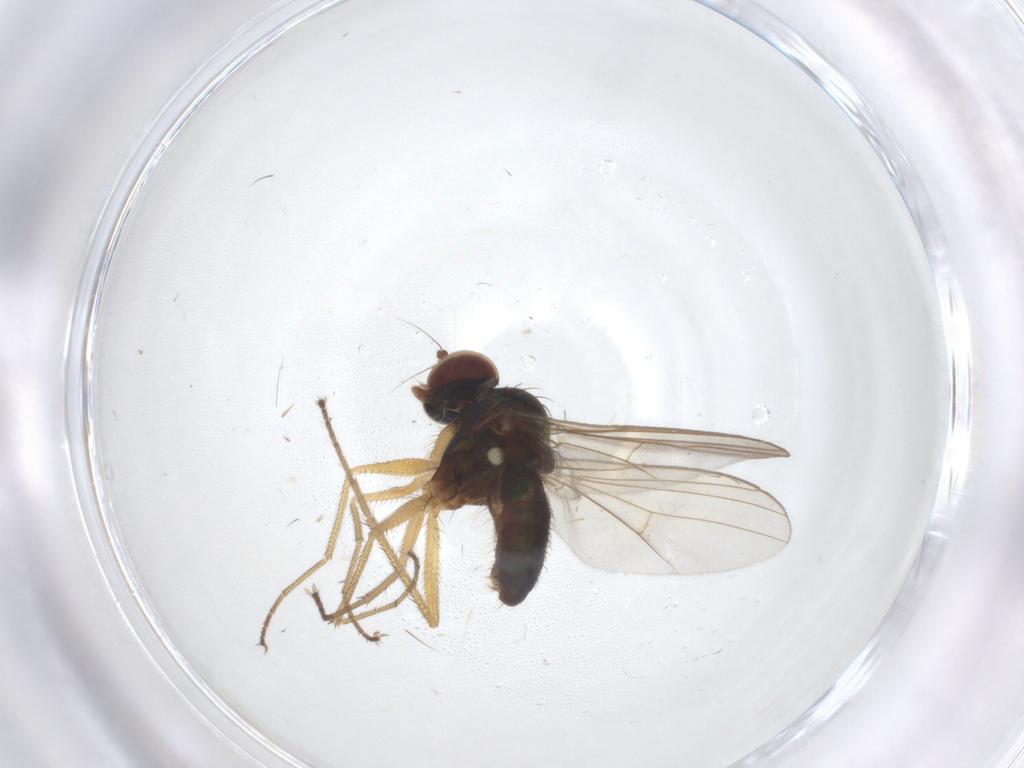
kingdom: Animalia
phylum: Arthropoda
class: Insecta
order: Diptera
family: Dolichopodidae
